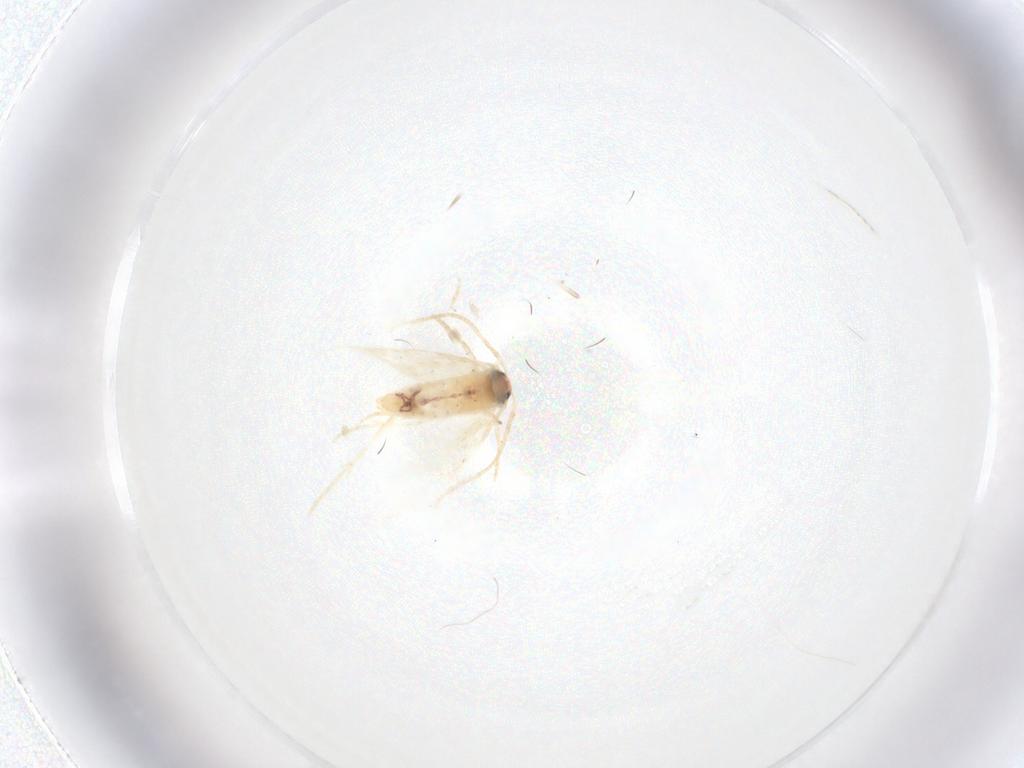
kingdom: Animalia
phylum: Arthropoda
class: Insecta
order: Lepidoptera
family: Nepticulidae
